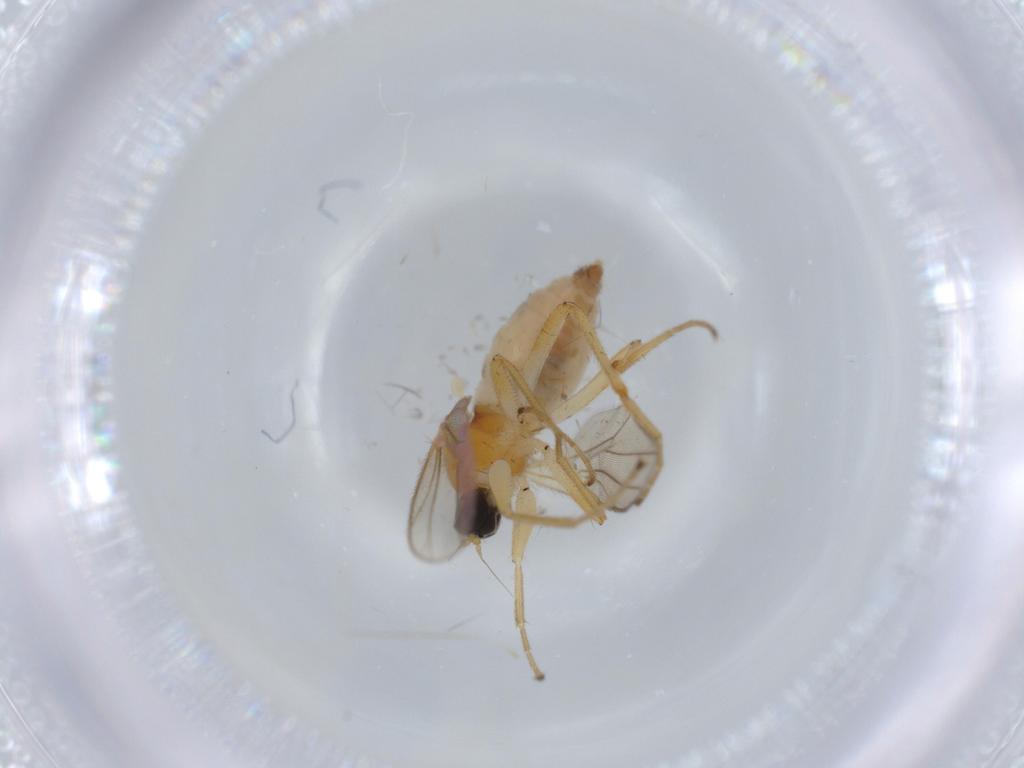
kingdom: Animalia
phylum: Arthropoda
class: Insecta
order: Diptera
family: Hybotidae
